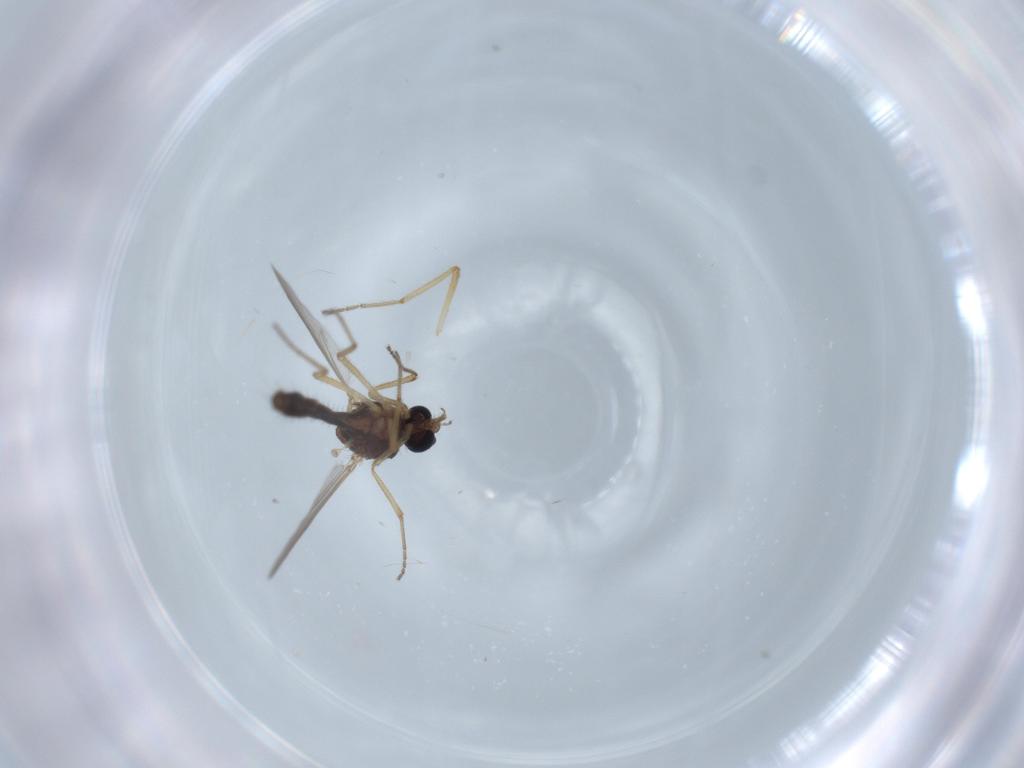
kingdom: Animalia
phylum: Arthropoda
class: Insecta
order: Diptera
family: Ceratopogonidae
